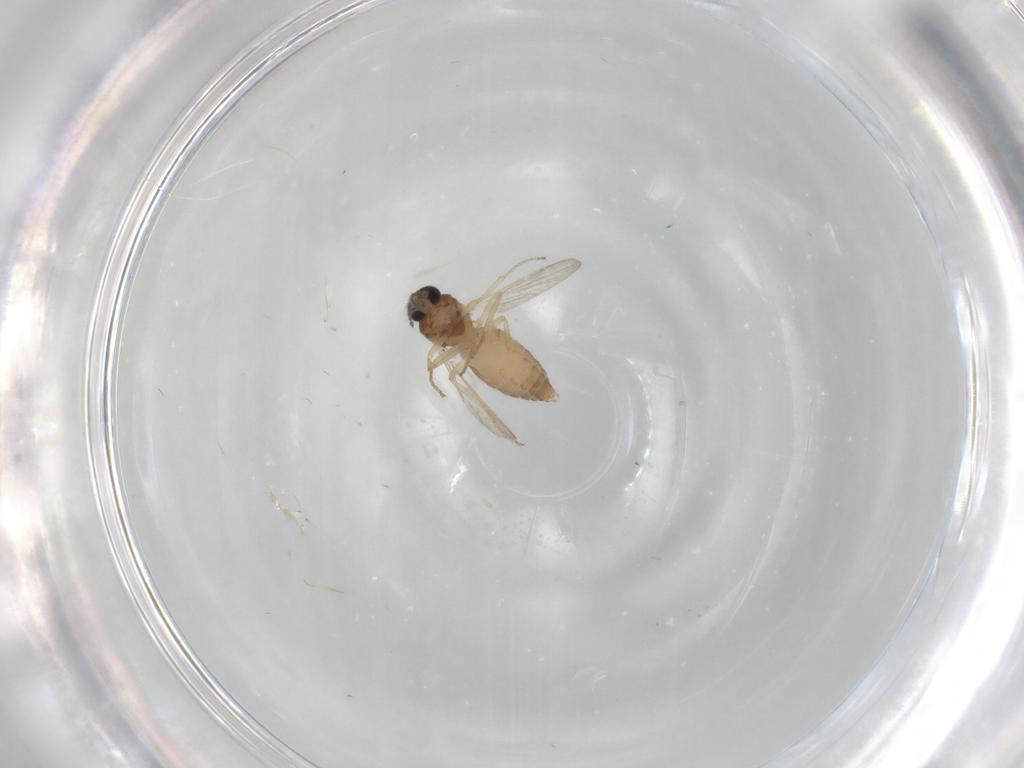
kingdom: Animalia
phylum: Arthropoda
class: Insecta
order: Diptera
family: Ceratopogonidae
